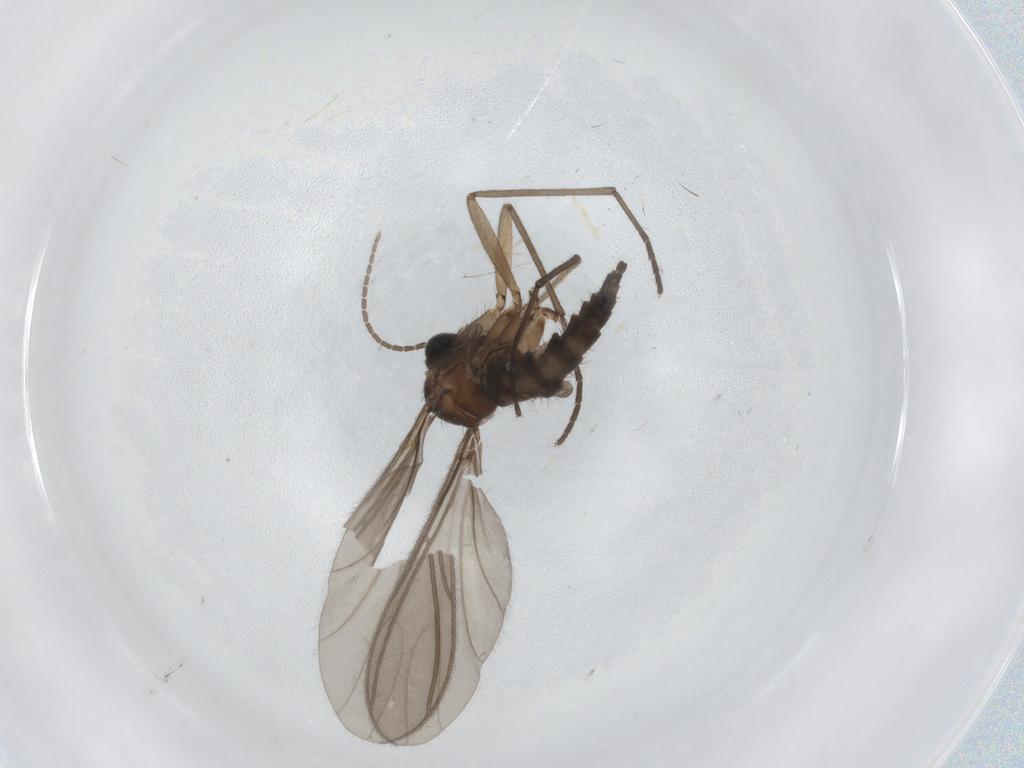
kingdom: Animalia
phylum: Arthropoda
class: Insecta
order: Diptera
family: Sciaridae
